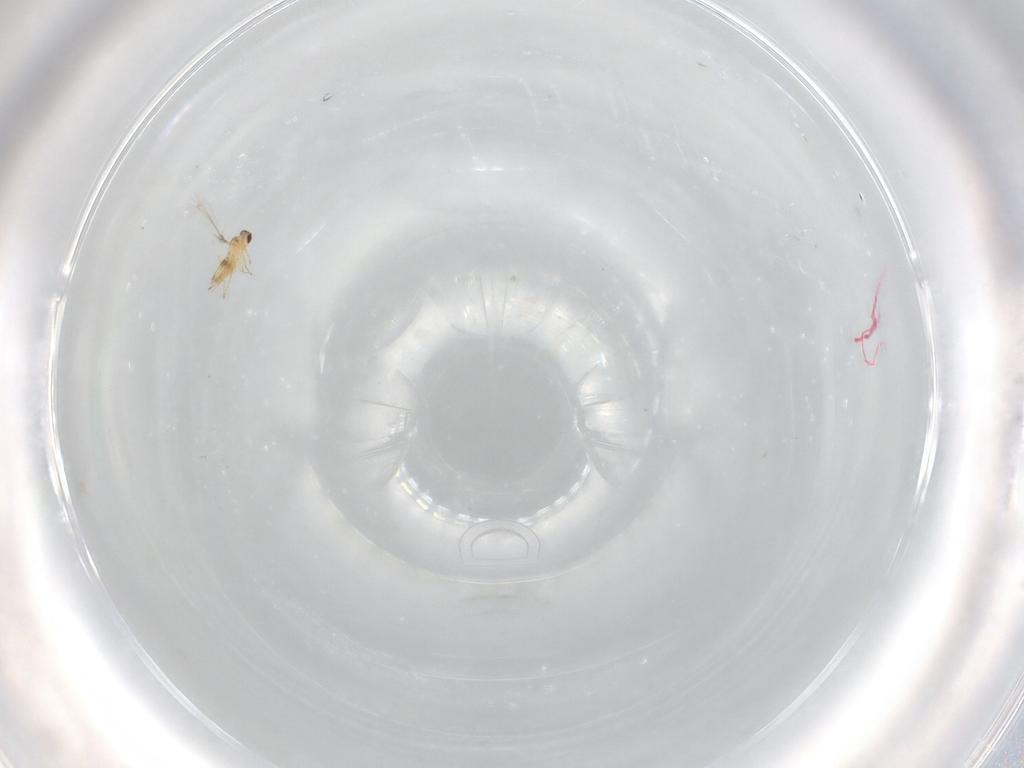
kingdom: Animalia
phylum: Arthropoda
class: Insecta
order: Hymenoptera
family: Mymaridae
